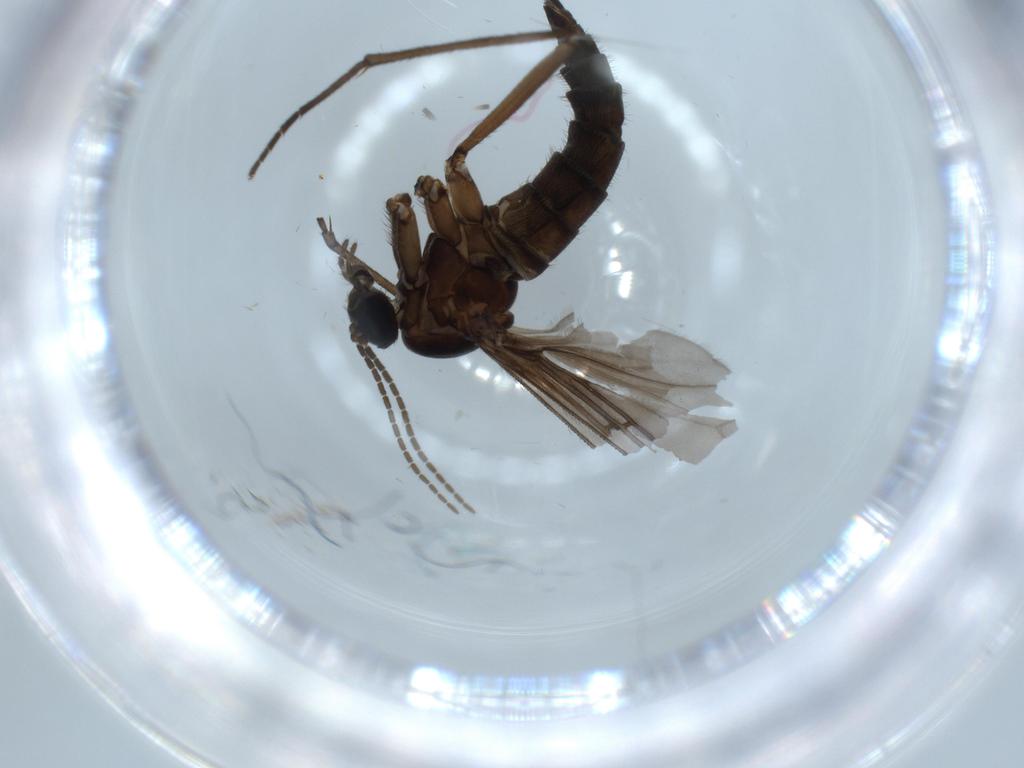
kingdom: Animalia
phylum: Arthropoda
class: Insecta
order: Diptera
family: Sciaridae
